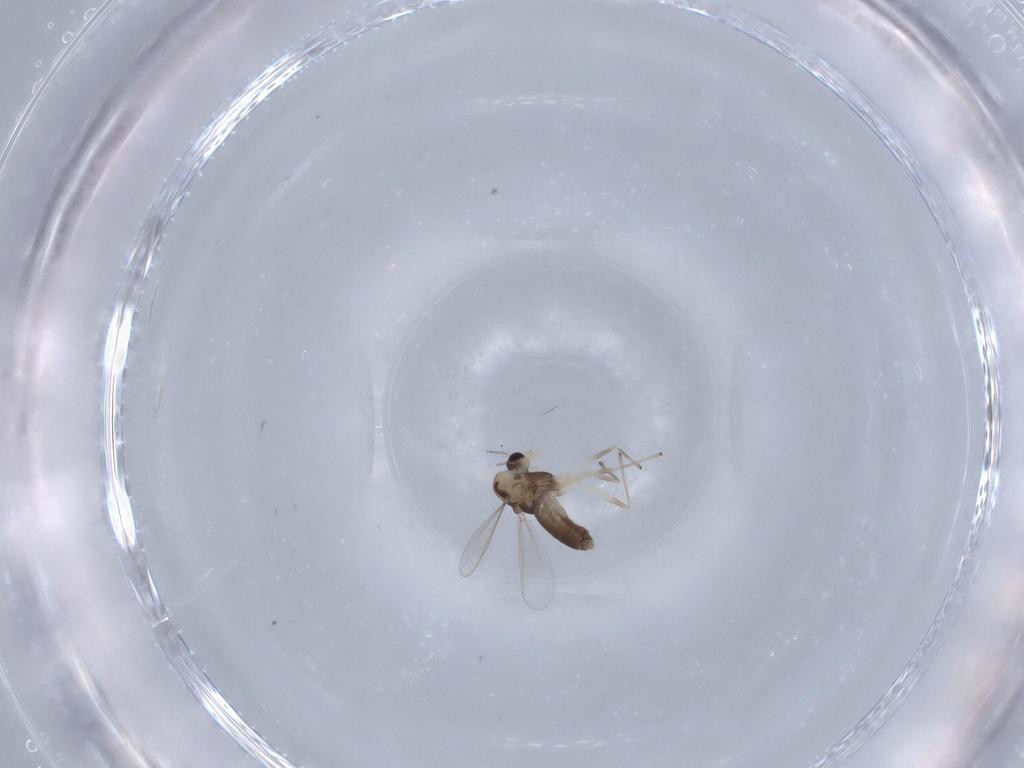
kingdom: Animalia
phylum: Arthropoda
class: Insecta
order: Diptera
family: Chironomidae
